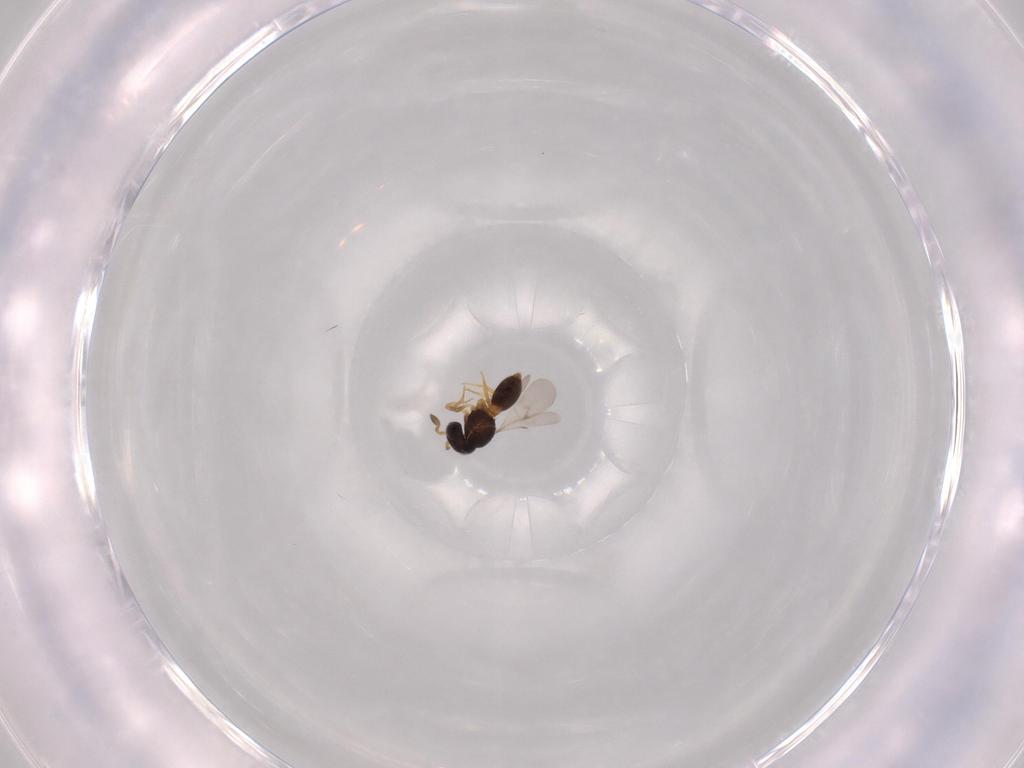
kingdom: Animalia
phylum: Arthropoda
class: Insecta
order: Hymenoptera
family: Scelionidae
